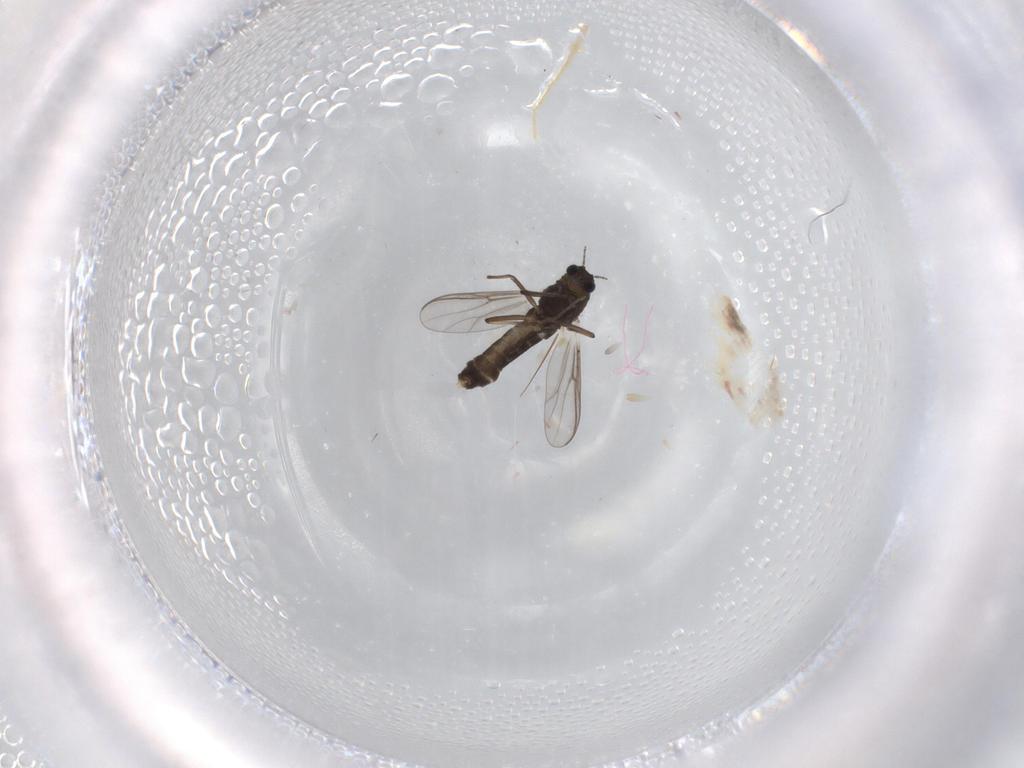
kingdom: Animalia
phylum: Arthropoda
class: Insecta
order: Diptera
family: Chironomidae
